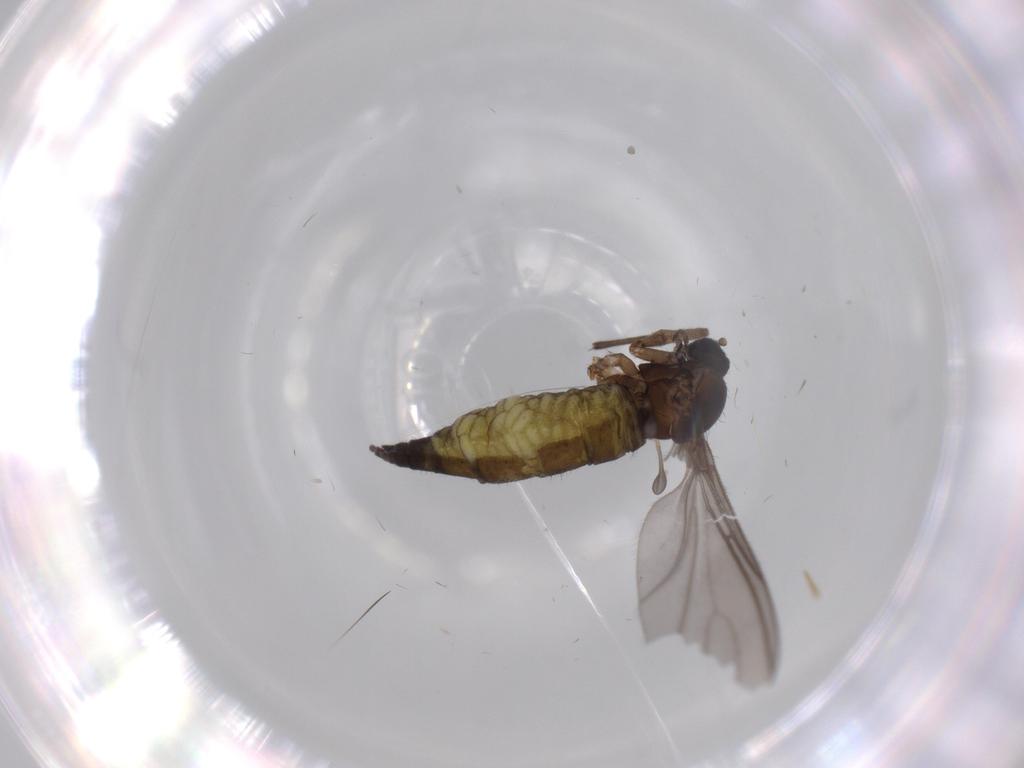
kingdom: Animalia
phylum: Arthropoda
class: Insecta
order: Diptera
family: Sciaridae
